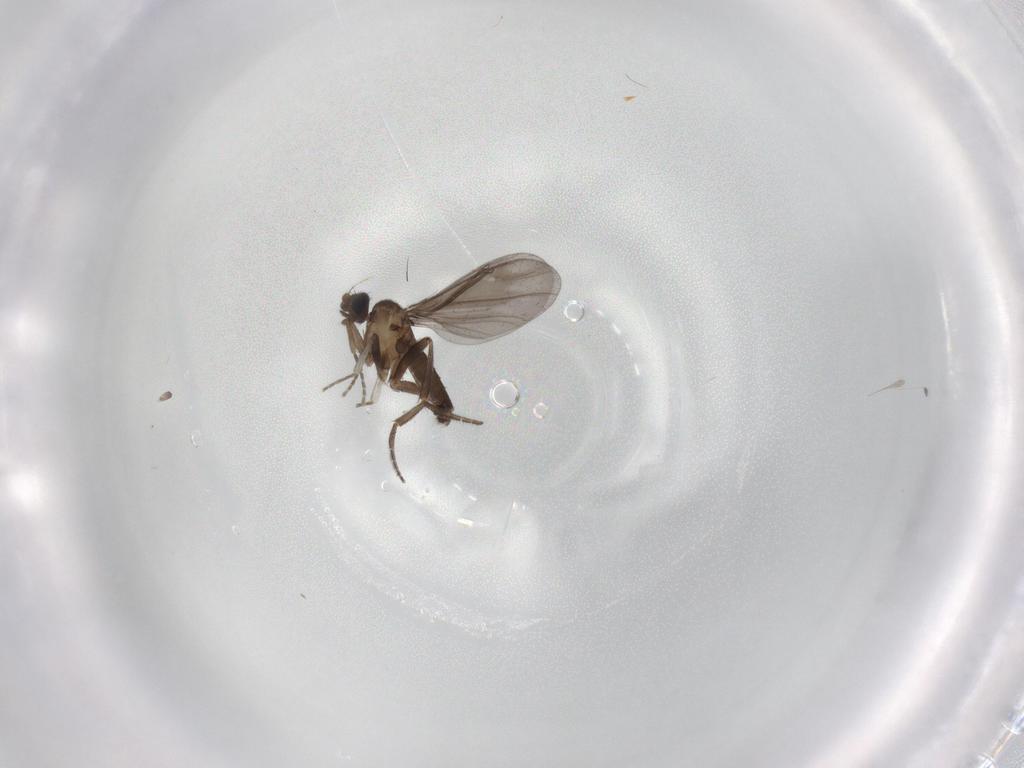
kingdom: Animalia
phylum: Arthropoda
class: Insecta
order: Diptera
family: Phoridae
